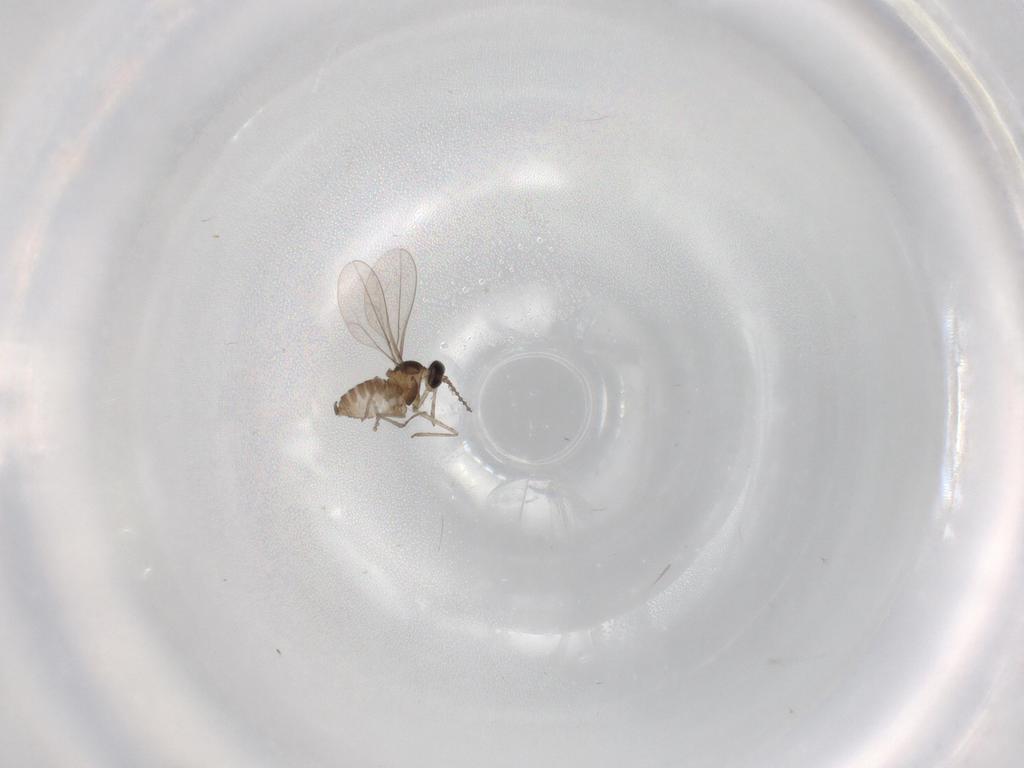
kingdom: Animalia
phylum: Arthropoda
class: Insecta
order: Diptera
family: Cecidomyiidae
